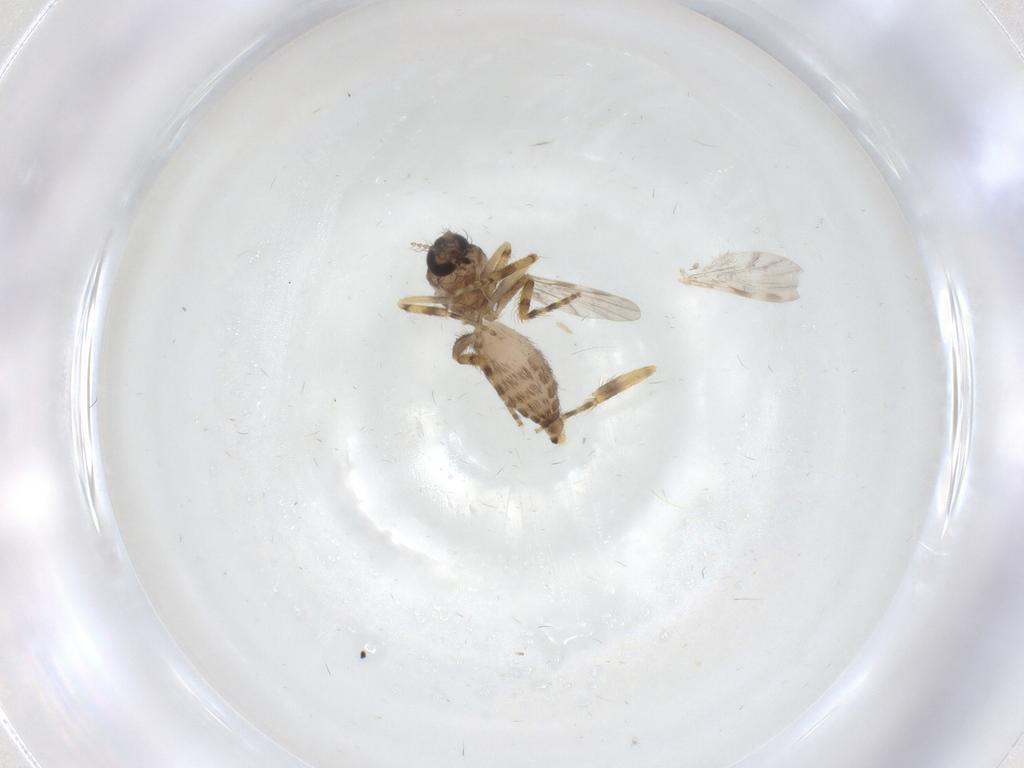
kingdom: Animalia
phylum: Arthropoda
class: Insecta
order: Diptera
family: Ceratopogonidae
